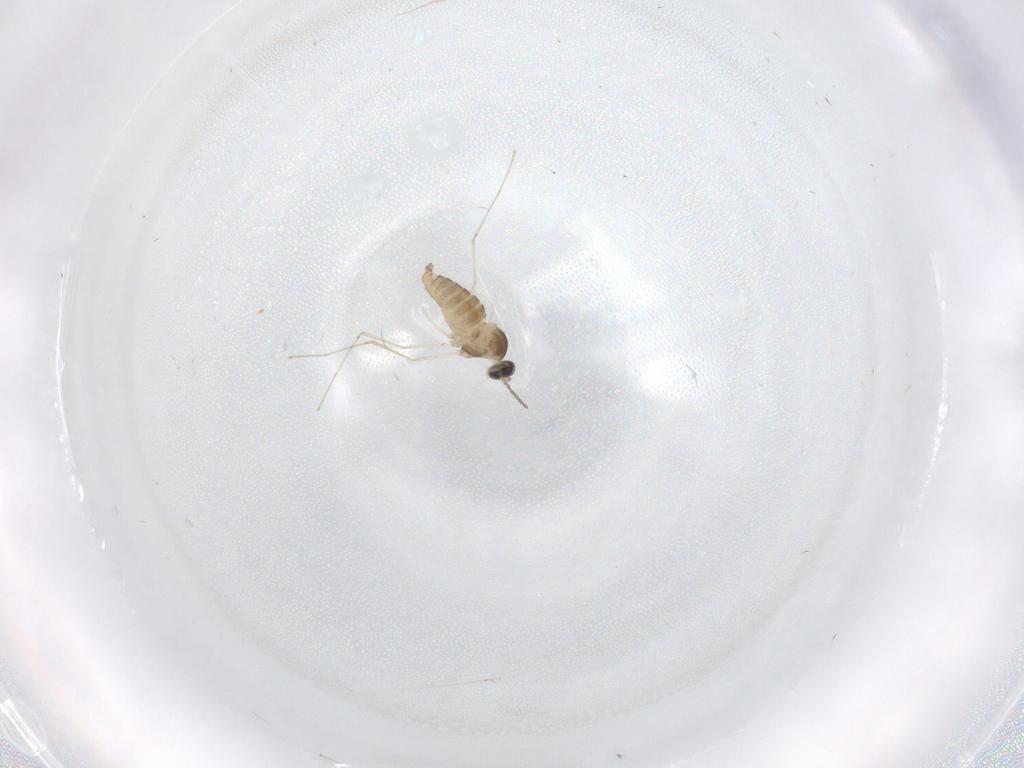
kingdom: Animalia
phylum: Arthropoda
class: Insecta
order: Diptera
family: Cecidomyiidae
